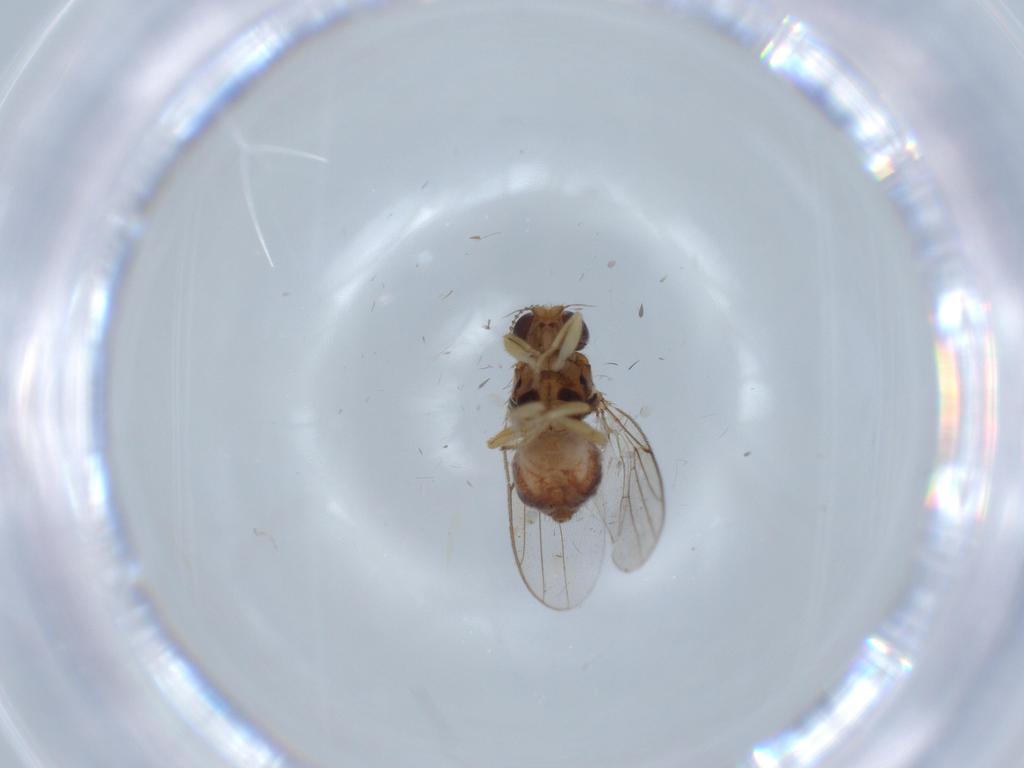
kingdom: Animalia
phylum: Arthropoda
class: Insecta
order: Diptera
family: Chloropidae
